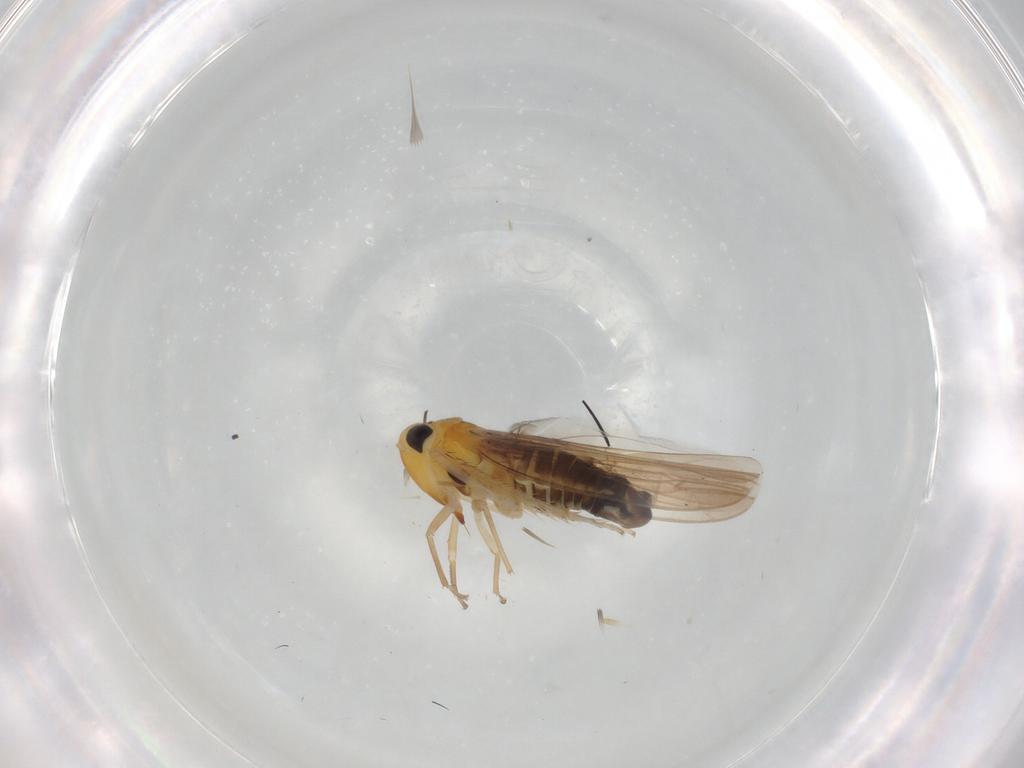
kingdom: Animalia
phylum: Arthropoda
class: Insecta
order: Hemiptera
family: Cicadellidae
